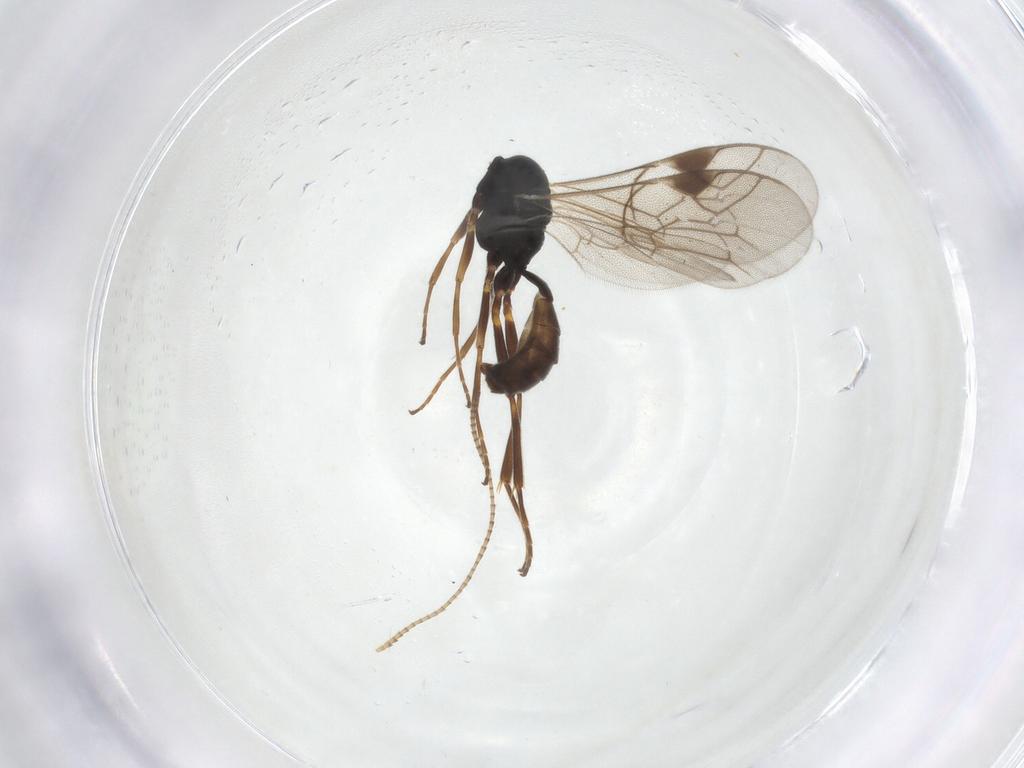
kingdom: Animalia
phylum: Arthropoda
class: Insecta
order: Hymenoptera
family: Ichneumonidae
